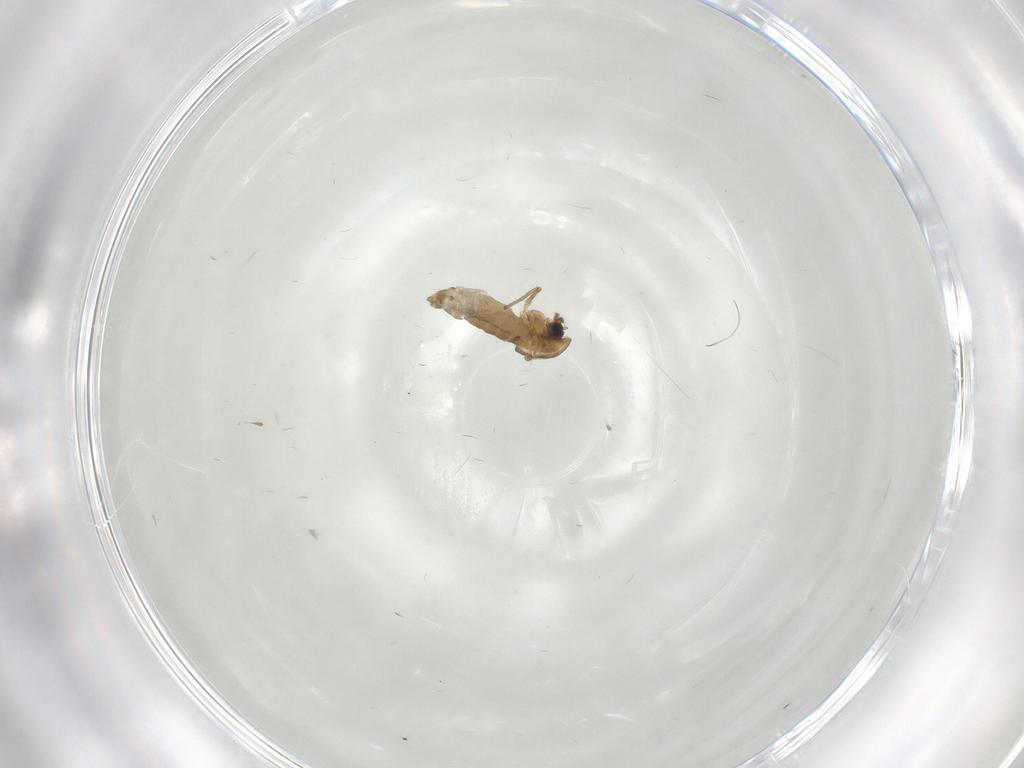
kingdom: Animalia
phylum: Arthropoda
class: Insecta
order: Diptera
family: Chironomidae
